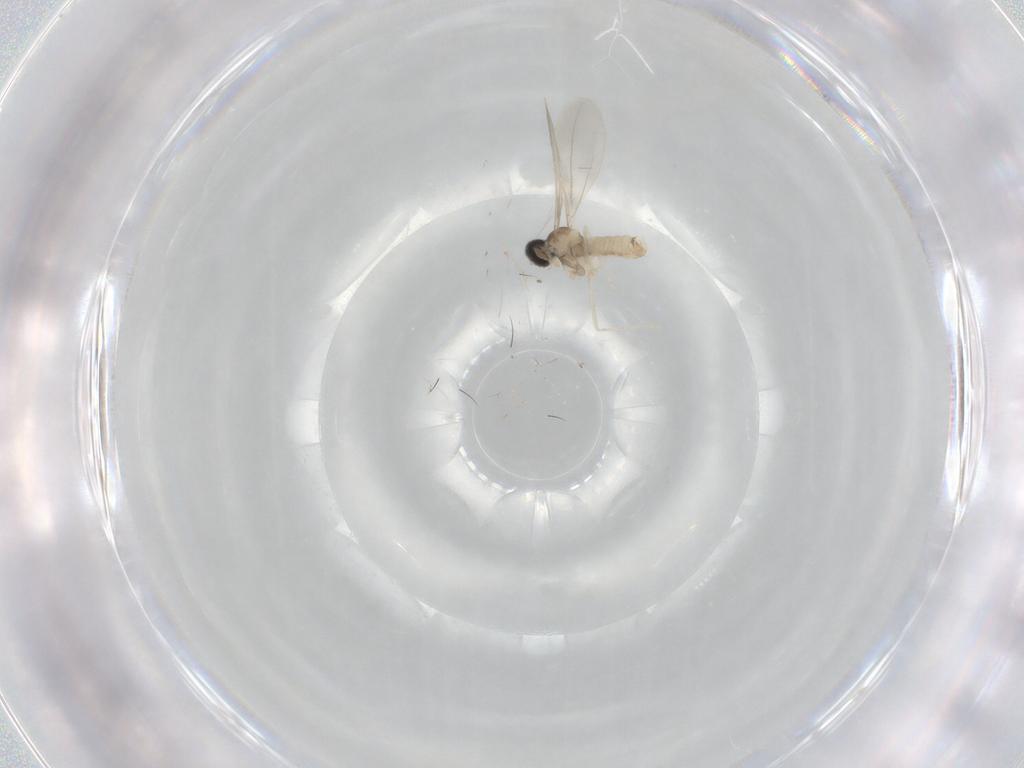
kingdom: Animalia
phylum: Arthropoda
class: Insecta
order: Diptera
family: Cecidomyiidae
